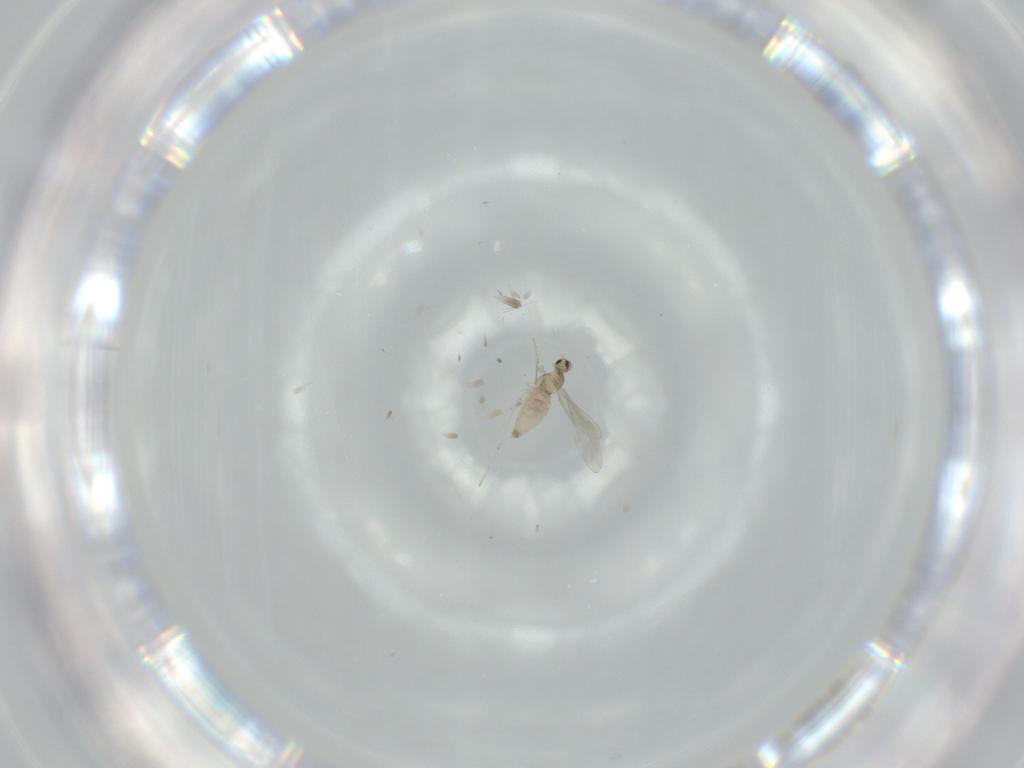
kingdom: Animalia
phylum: Arthropoda
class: Insecta
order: Diptera
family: Cecidomyiidae
